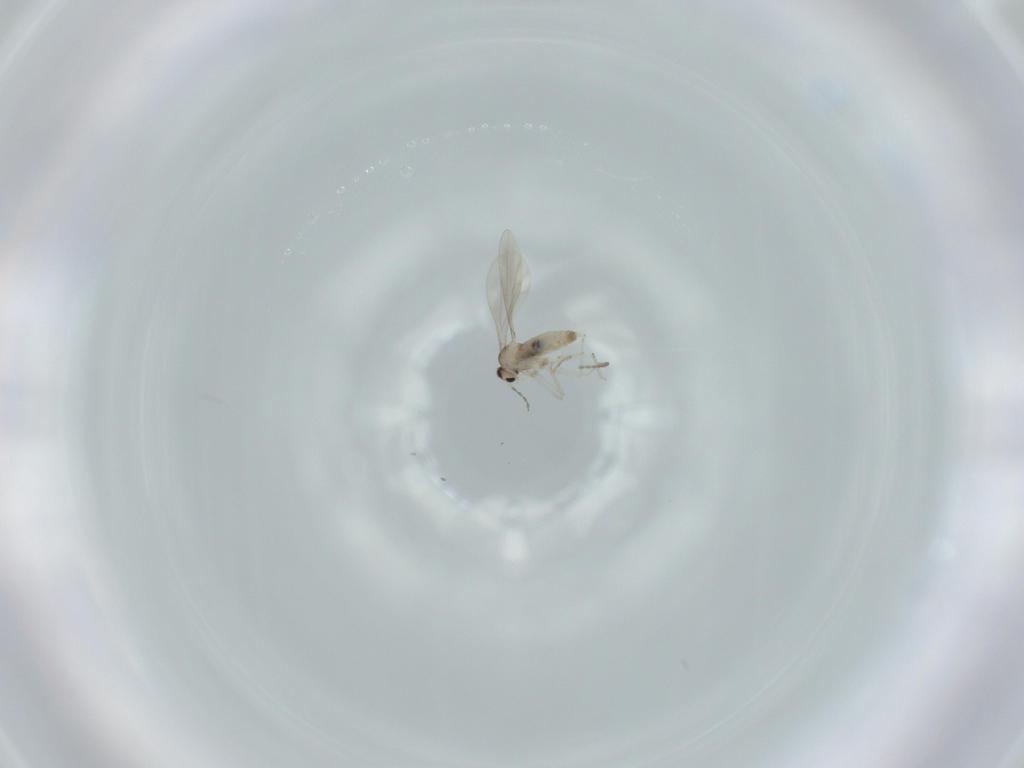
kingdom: Animalia
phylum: Arthropoda
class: Insecta
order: Diptera
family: Cecidomyiidae
